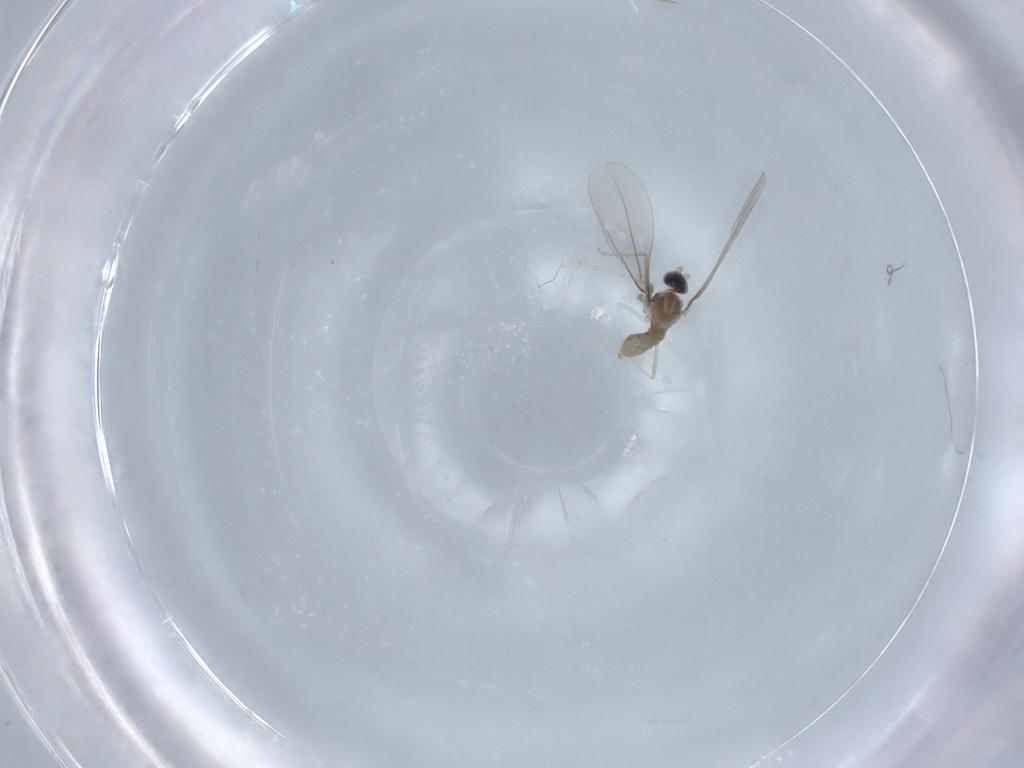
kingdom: Animalia
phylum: Arthropoda
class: Insecta
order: Diptera
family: Cecidomyiidae
